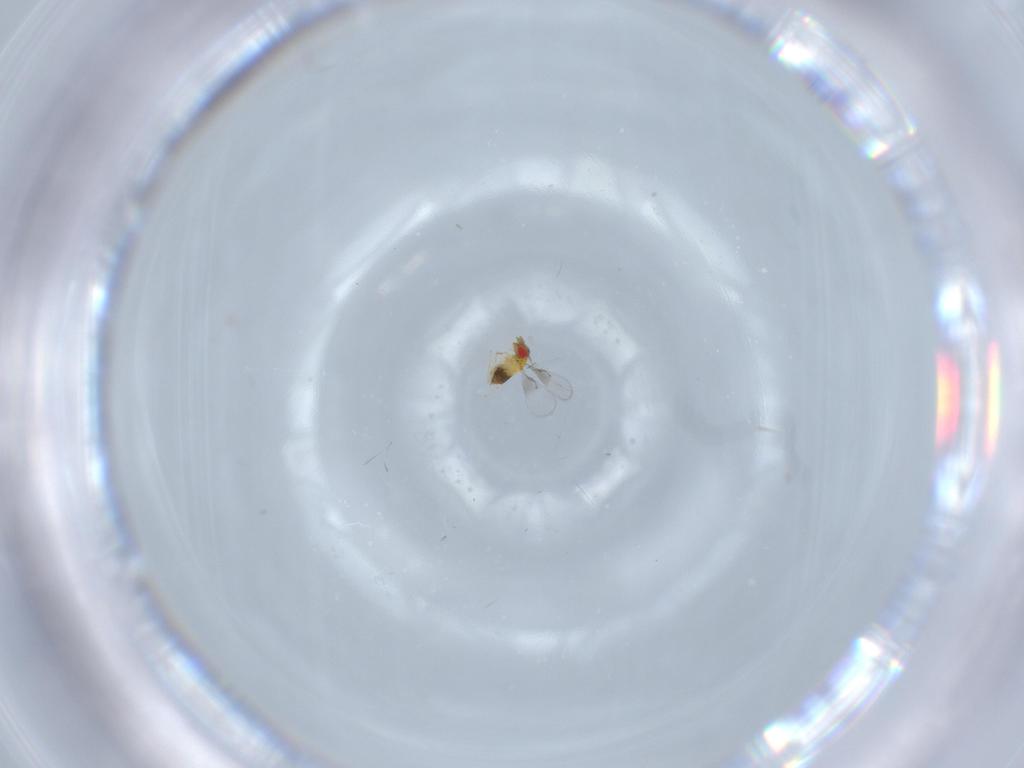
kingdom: Animalia
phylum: Arthropoda
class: Insecta
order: Hymenoptera
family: Trichogrammatidae
